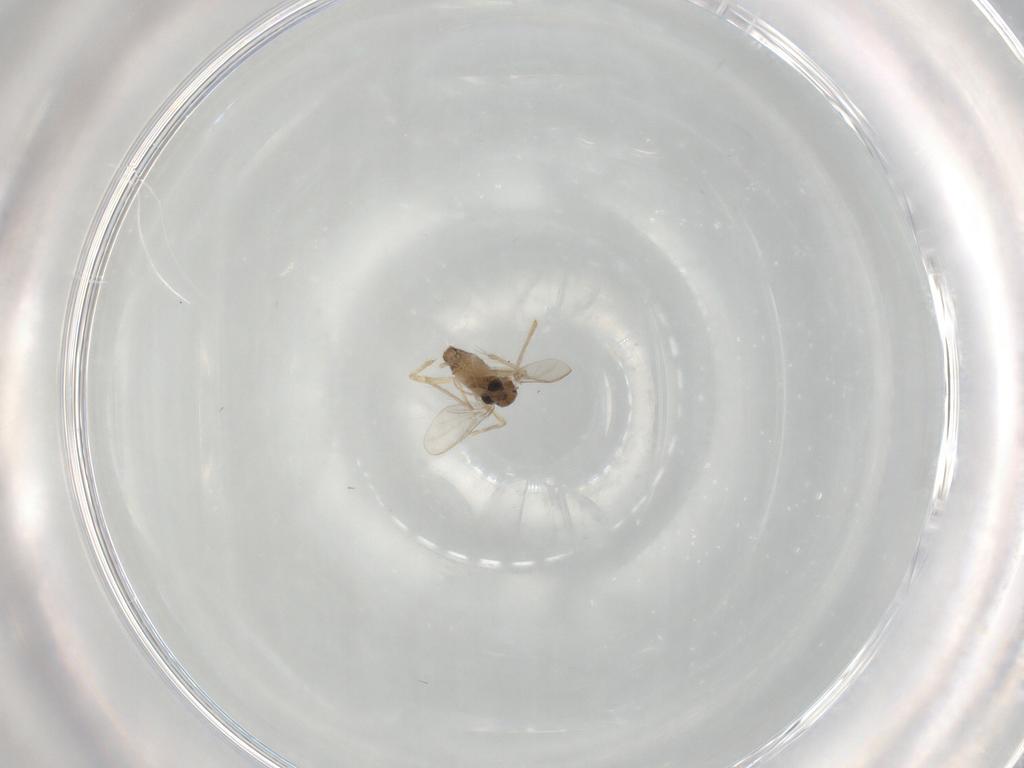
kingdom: Animalia
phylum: Arthropoda
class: Insecta
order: Diptera
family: Chironomidae
